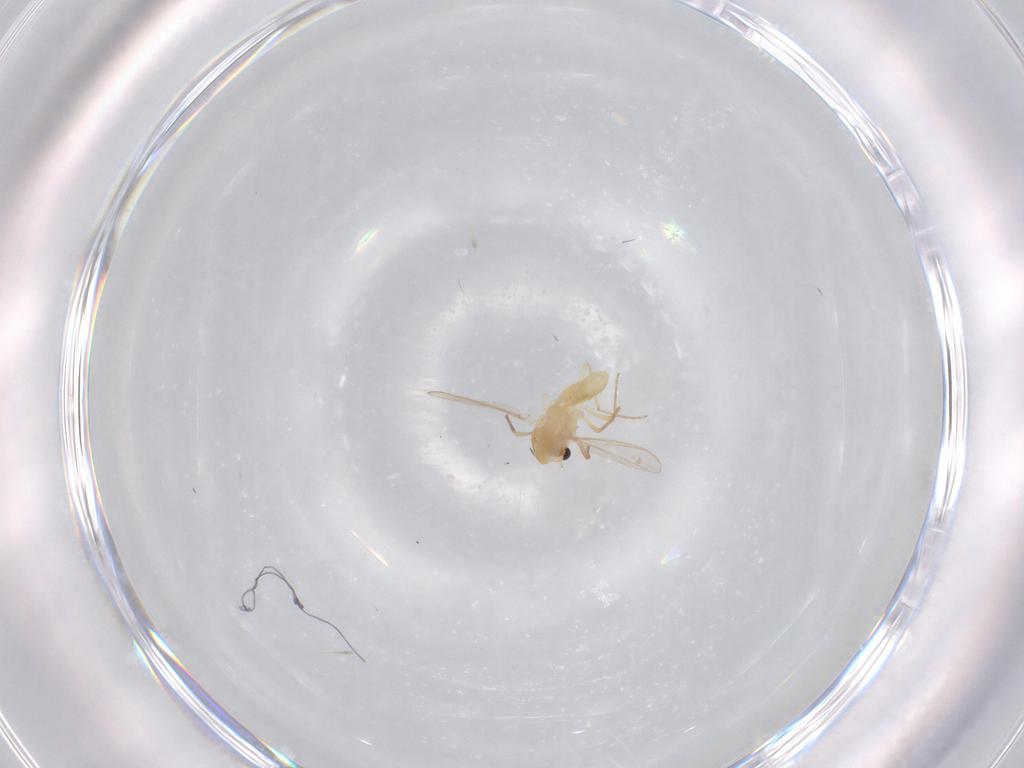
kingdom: Animalia
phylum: Arthropoda
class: Insecta
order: Diptera
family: Chironomidae
